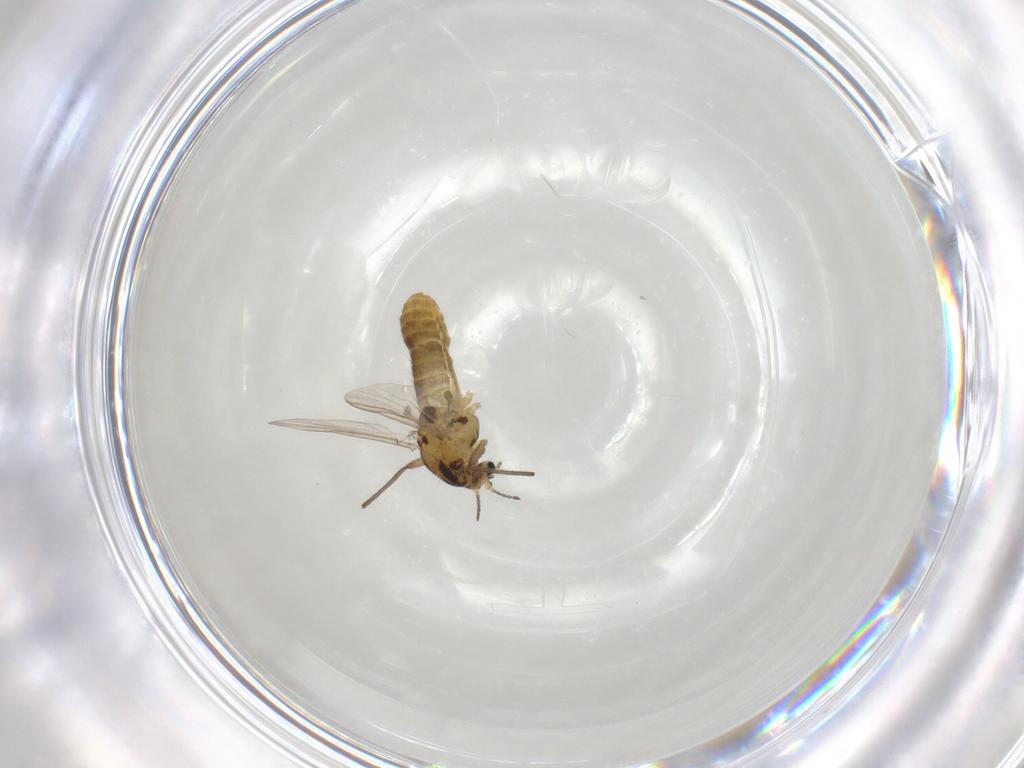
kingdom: Animalia
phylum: Arthropoda
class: Insecta
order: Diptera
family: Chironomidae
